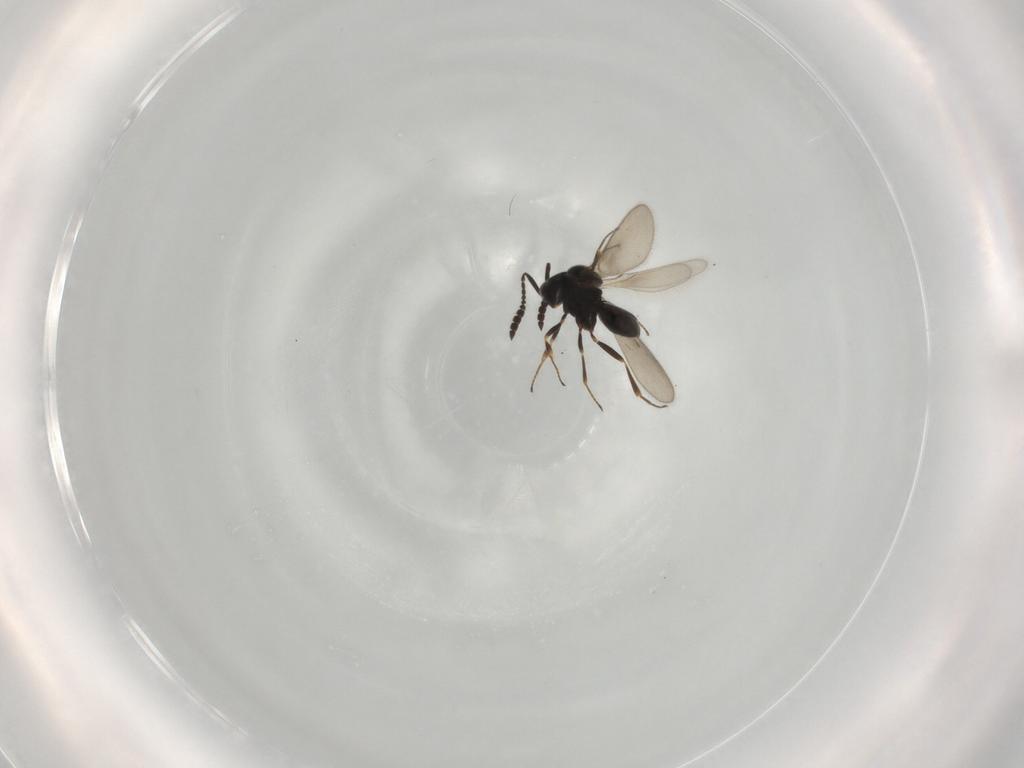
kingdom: Animalia
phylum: Arthropoda
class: Insecta
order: Hymenoptera
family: Scelionidae
